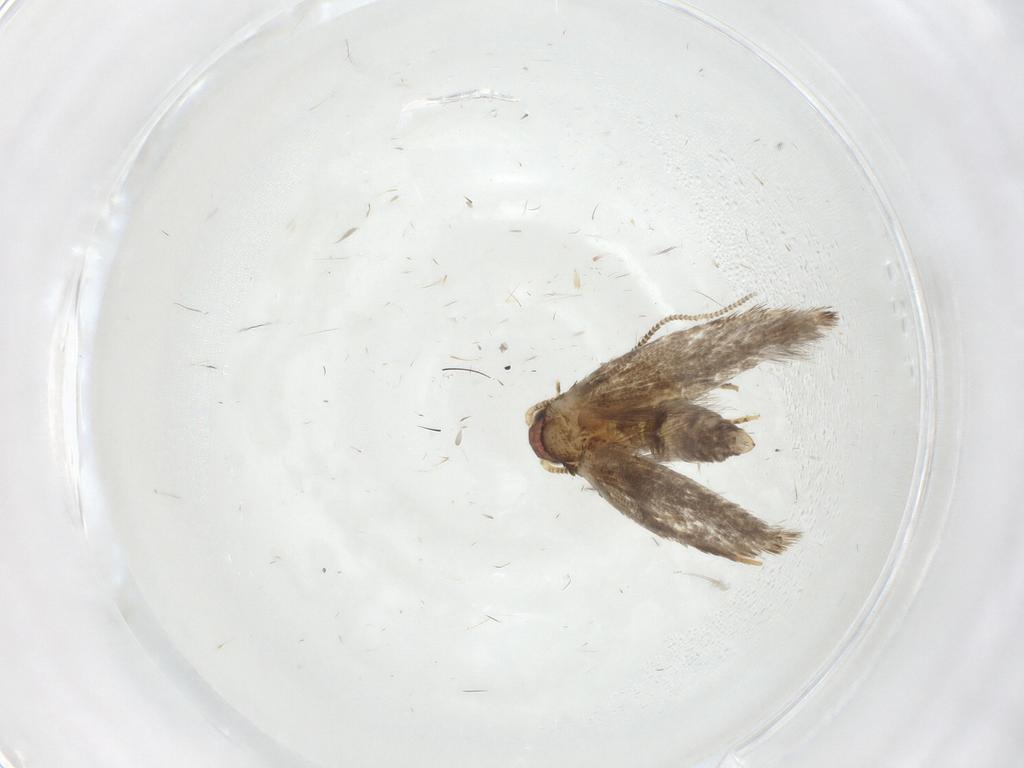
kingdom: Animalia
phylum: Arthropoda
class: Insecta
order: Lepidoptera
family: Tineidae
